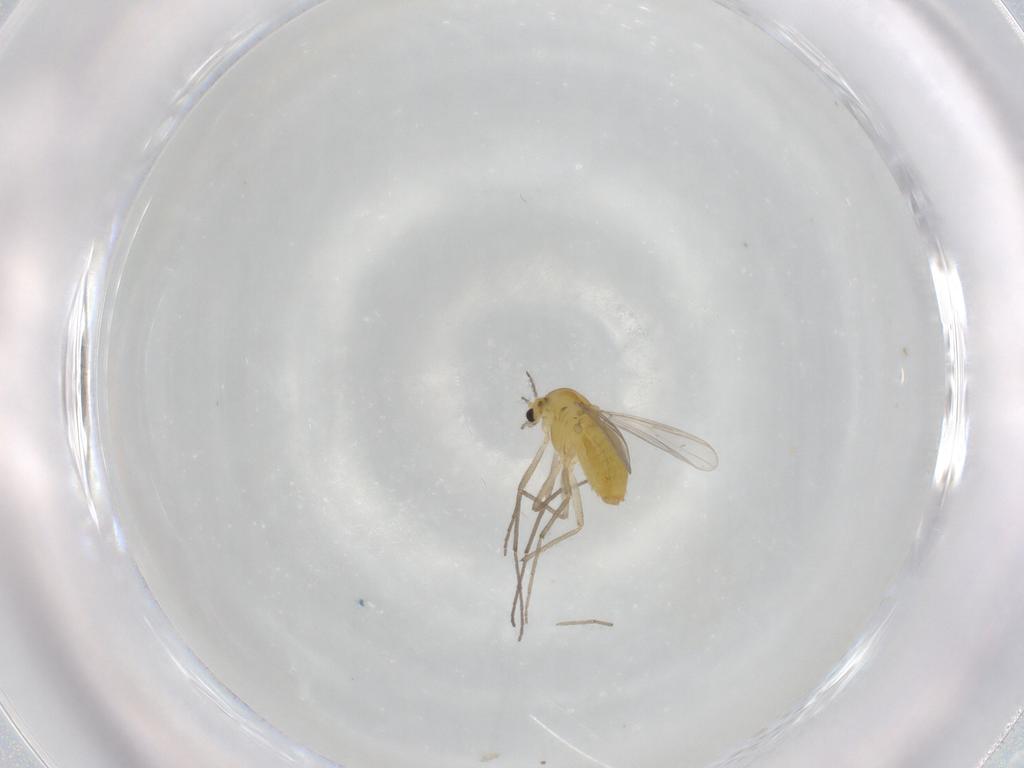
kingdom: Animalia
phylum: Arthropoda
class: Insecta
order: Diptera
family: Chironomidae
